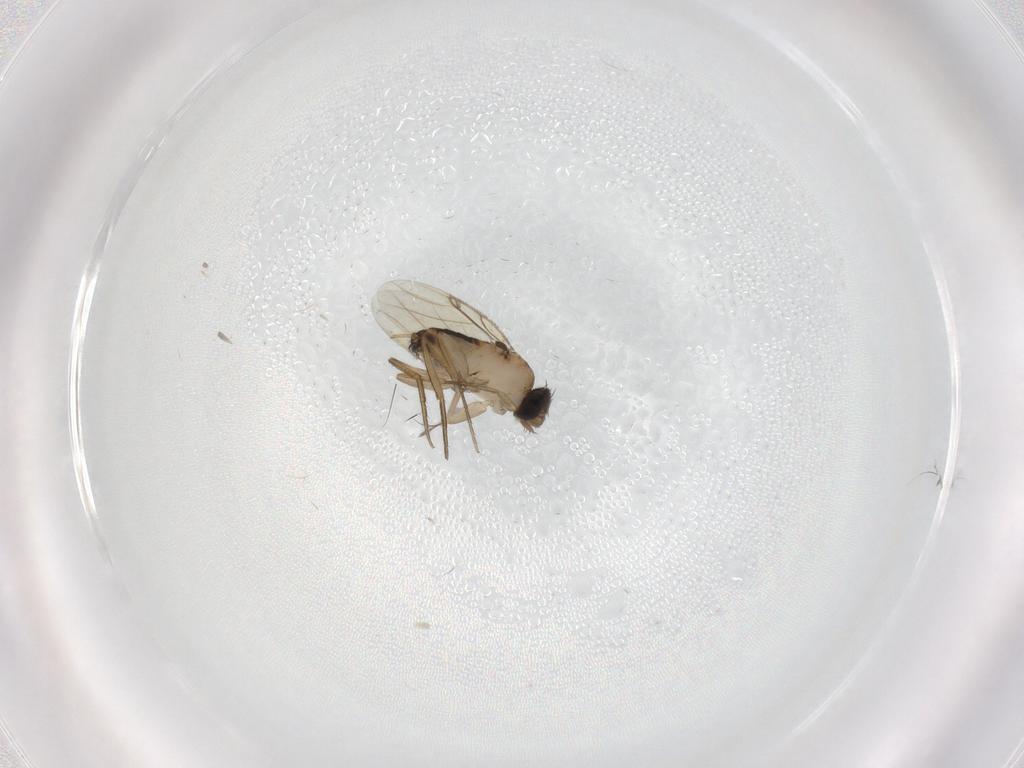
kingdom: Animalia
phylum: Arthropoda
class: Insecta
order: Diptera
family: Phoridae
